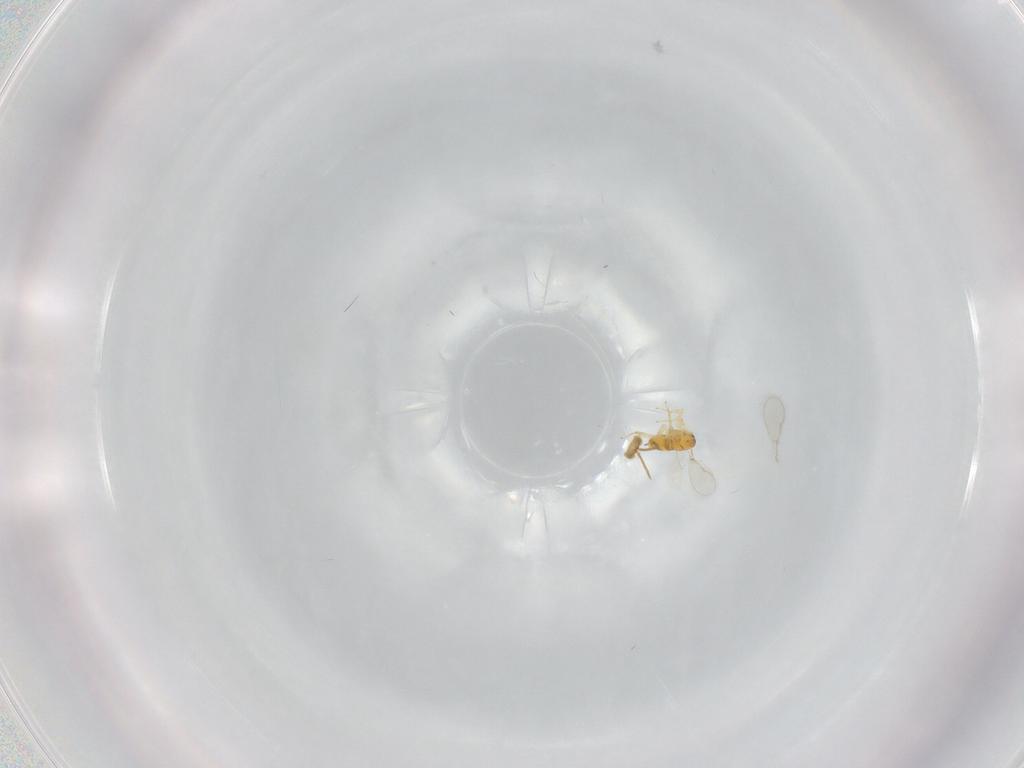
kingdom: Animalia
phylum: Arthropoda
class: Insecta
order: Hymenoptera
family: Aphelinidae
